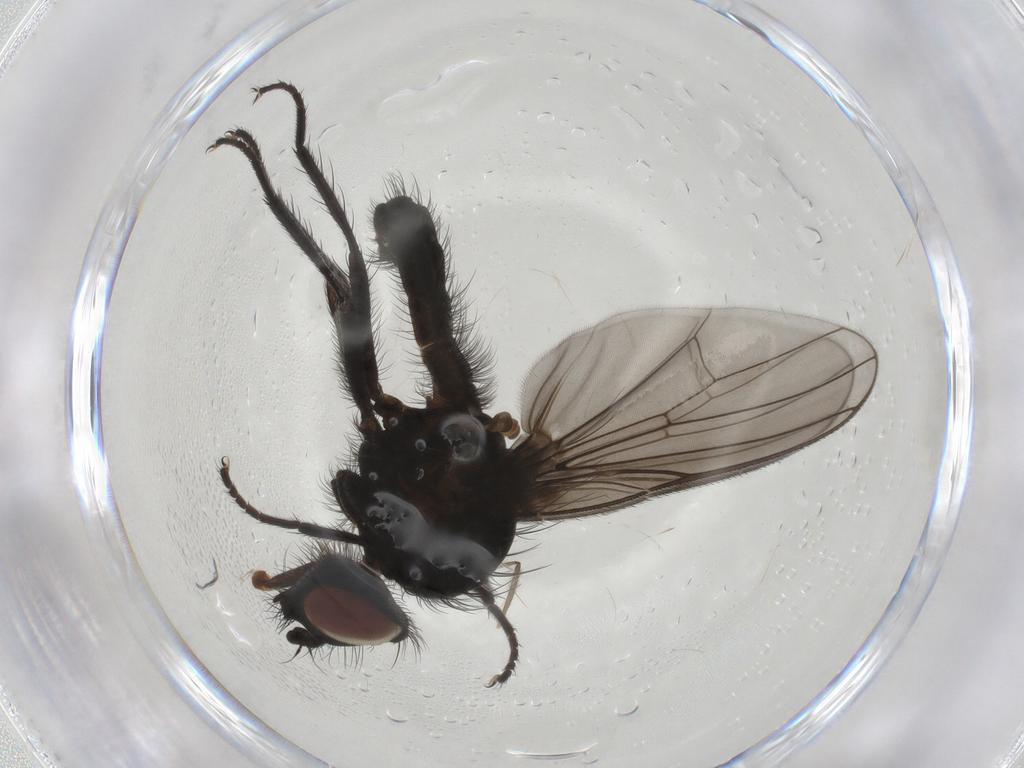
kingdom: Animalia
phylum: Arthropoda
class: Insecta
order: Diptera
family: Anthomyiidae
